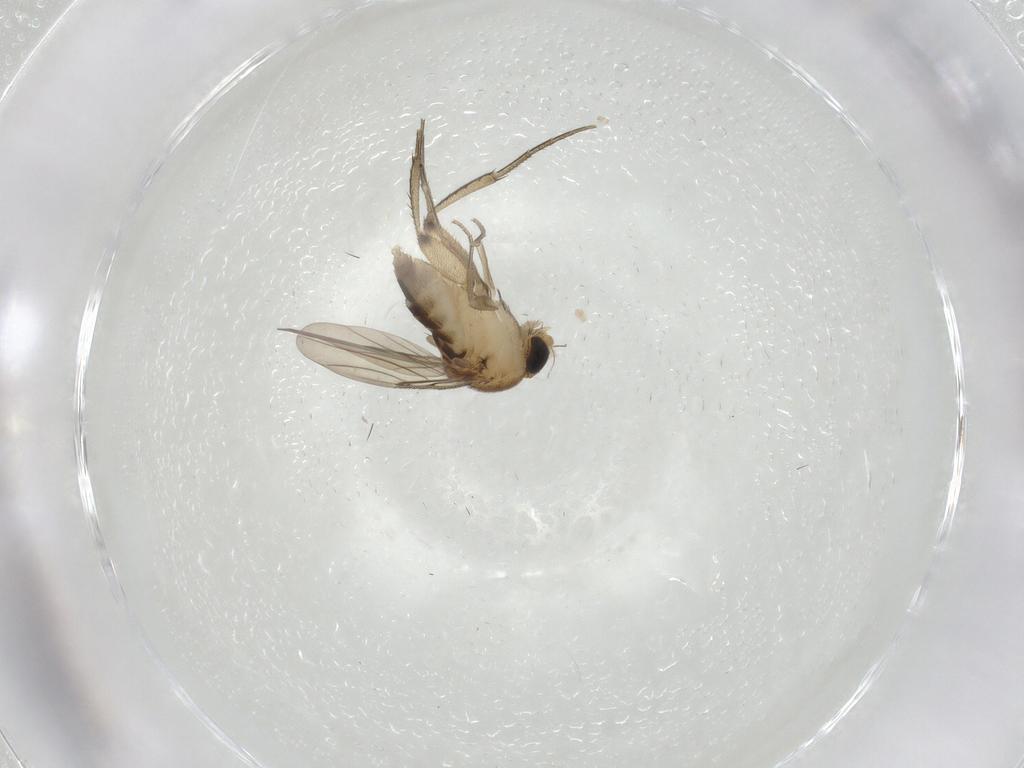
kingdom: Animalia
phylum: Arthropoda
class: Insecta
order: Diptera
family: Phoridae
